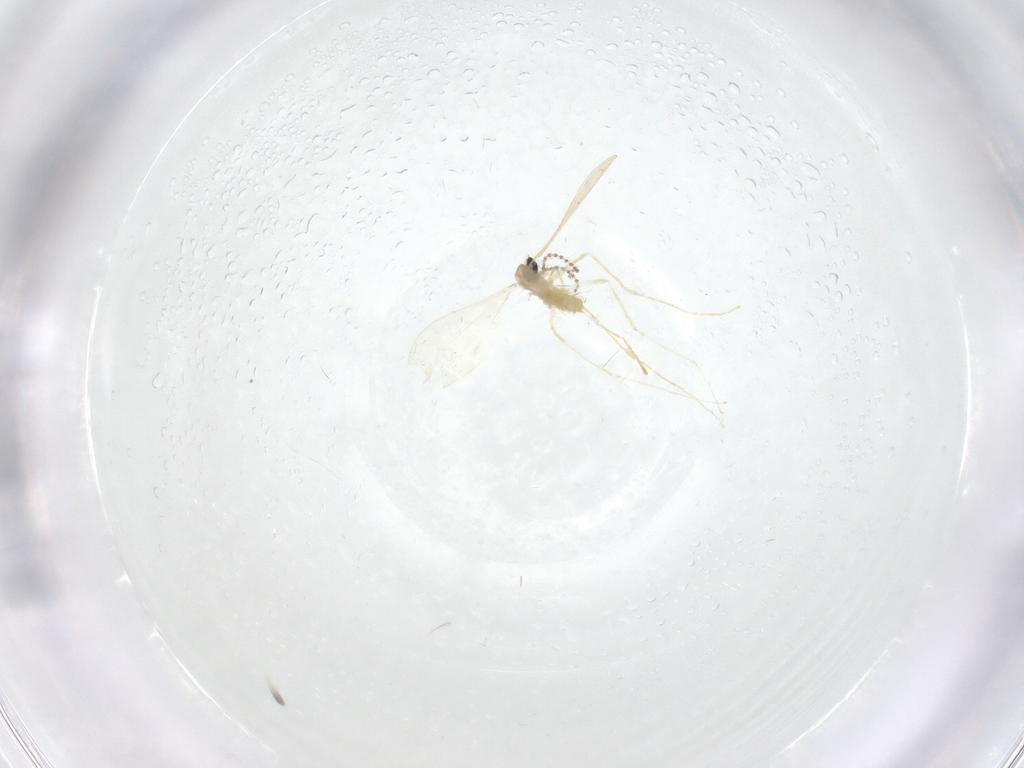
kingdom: Animalia
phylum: Arthropoda
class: Insecta
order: Diptera
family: Cecidomyiidae
